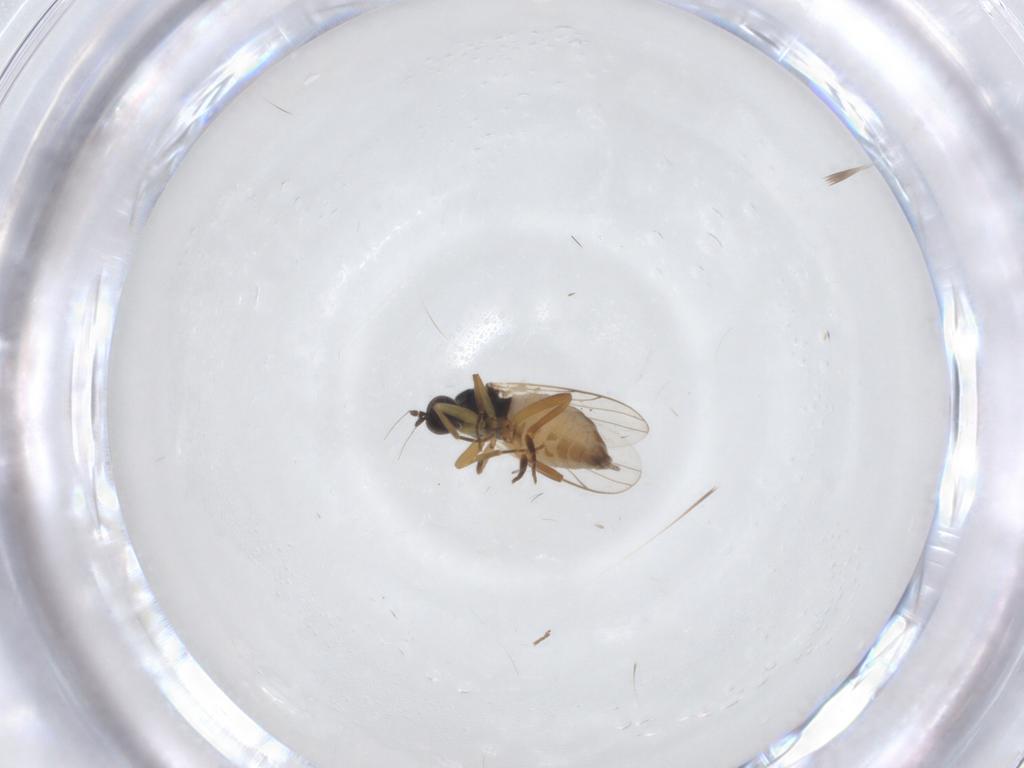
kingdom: Animalia
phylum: Arthropoda
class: Insecta
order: Diptera
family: Hybotidae
